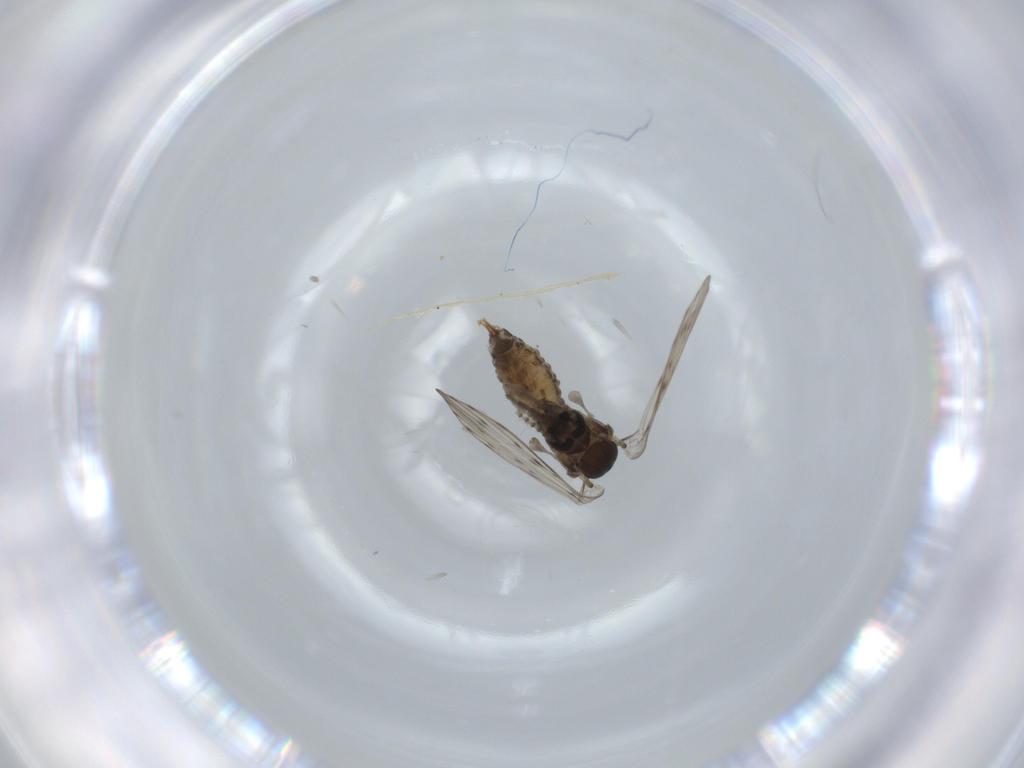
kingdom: Animalia
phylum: Arthropoda
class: Insecta
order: Diptera
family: Psychodidae
